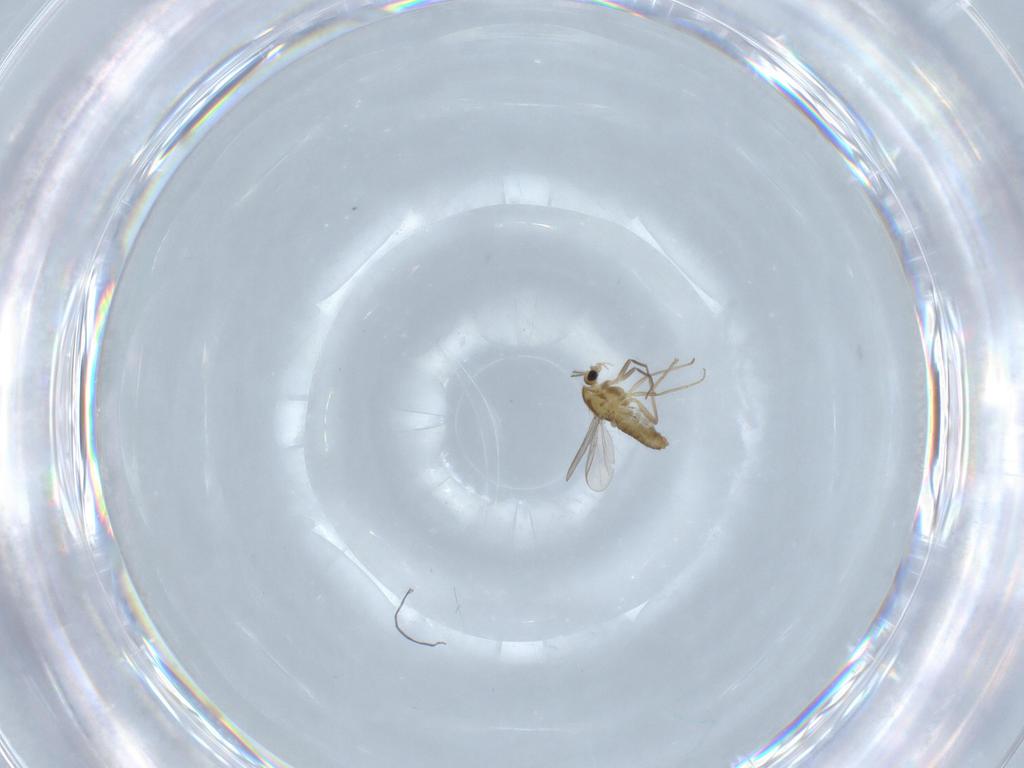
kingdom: Animalia
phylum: Arthropoda
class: Insecta
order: Diptera
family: Chironomidae
